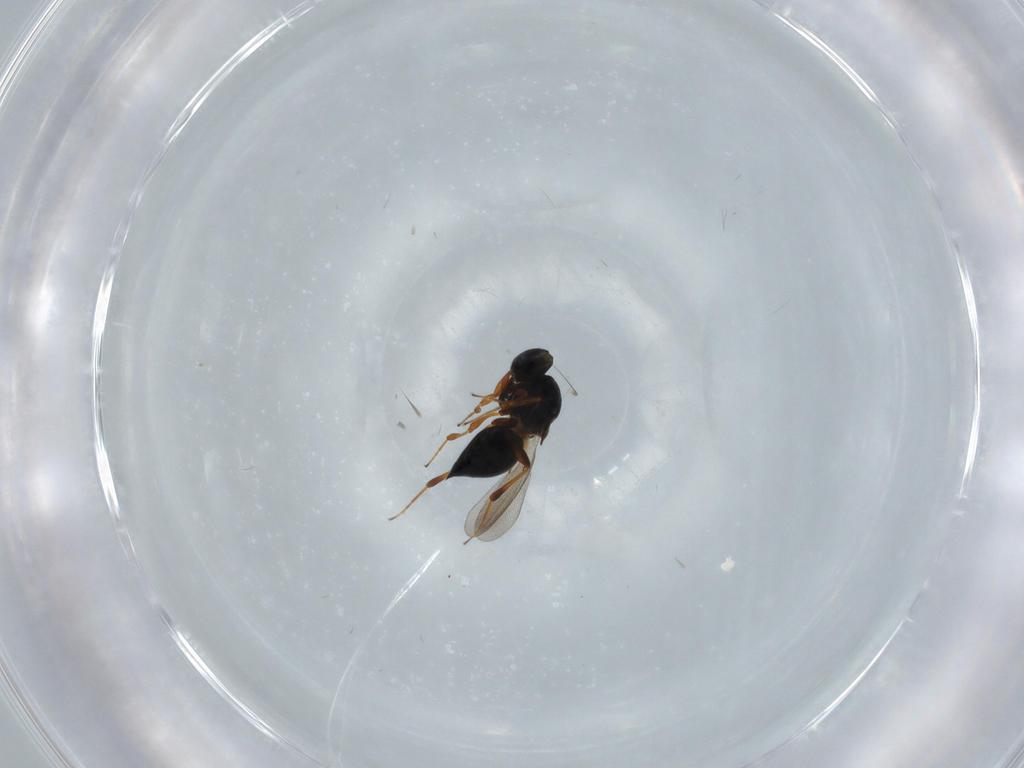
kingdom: Animalia
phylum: Arthropoda
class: Insecta
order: Hymenoptera
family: Platygastridae
